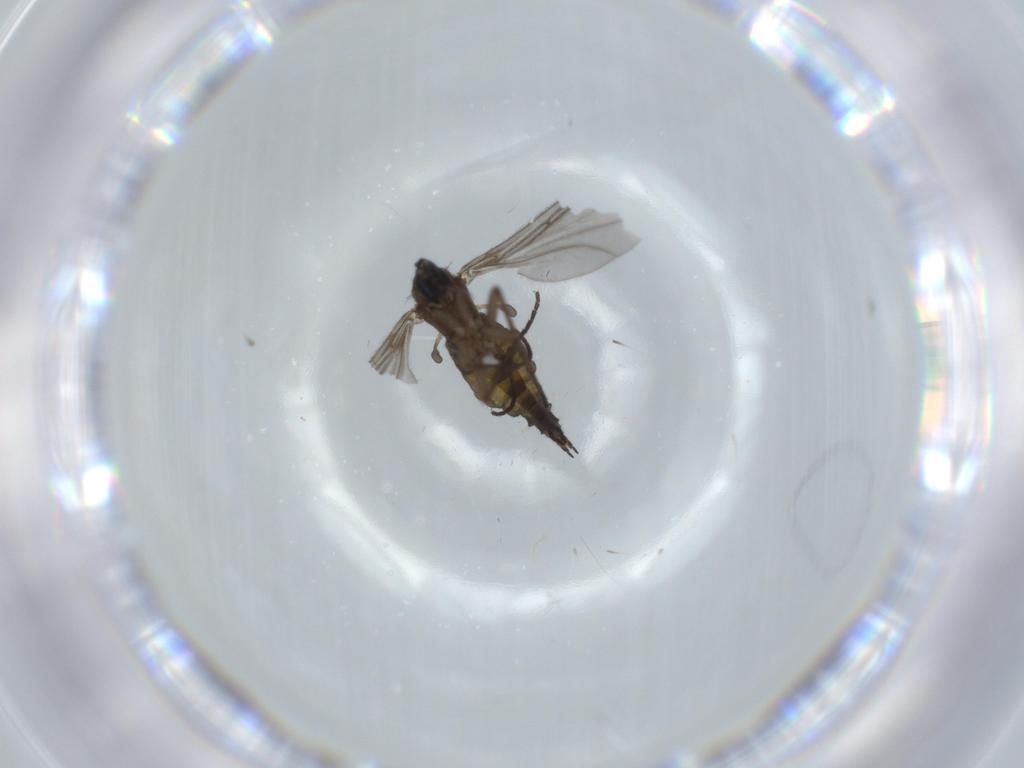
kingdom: Animalia
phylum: Arthropoda
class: Insecta
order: Diptera
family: Sciaridae
